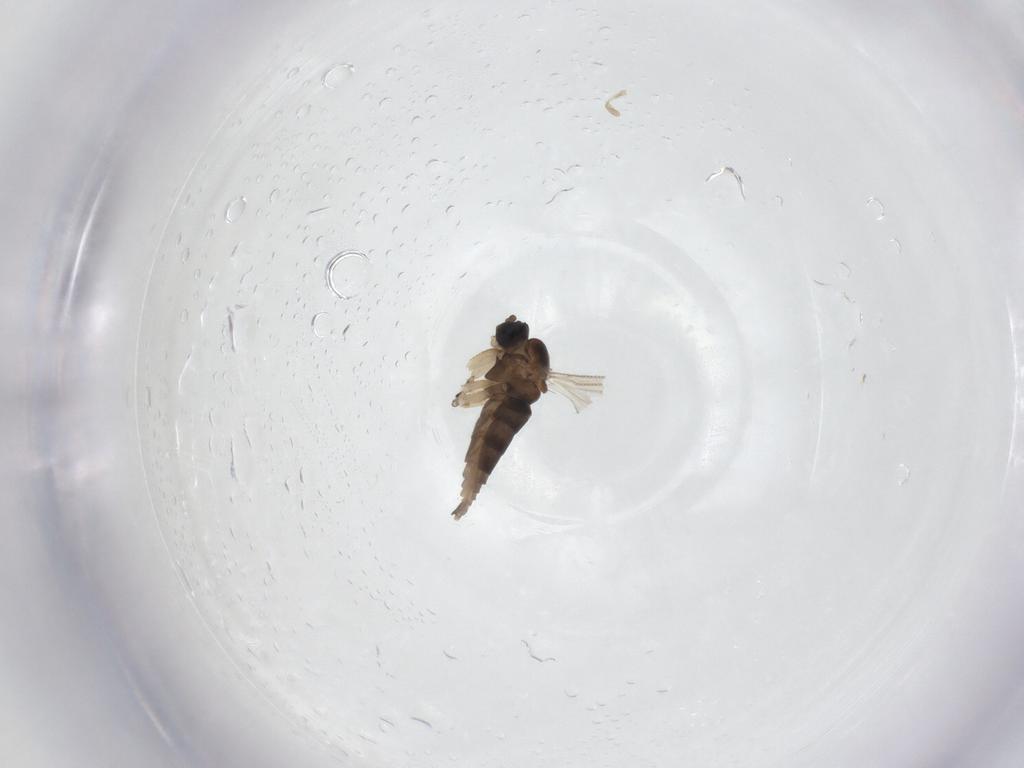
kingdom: Animalia
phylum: Arthropoda
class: Insecta
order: Diptera
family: Sciaridae
